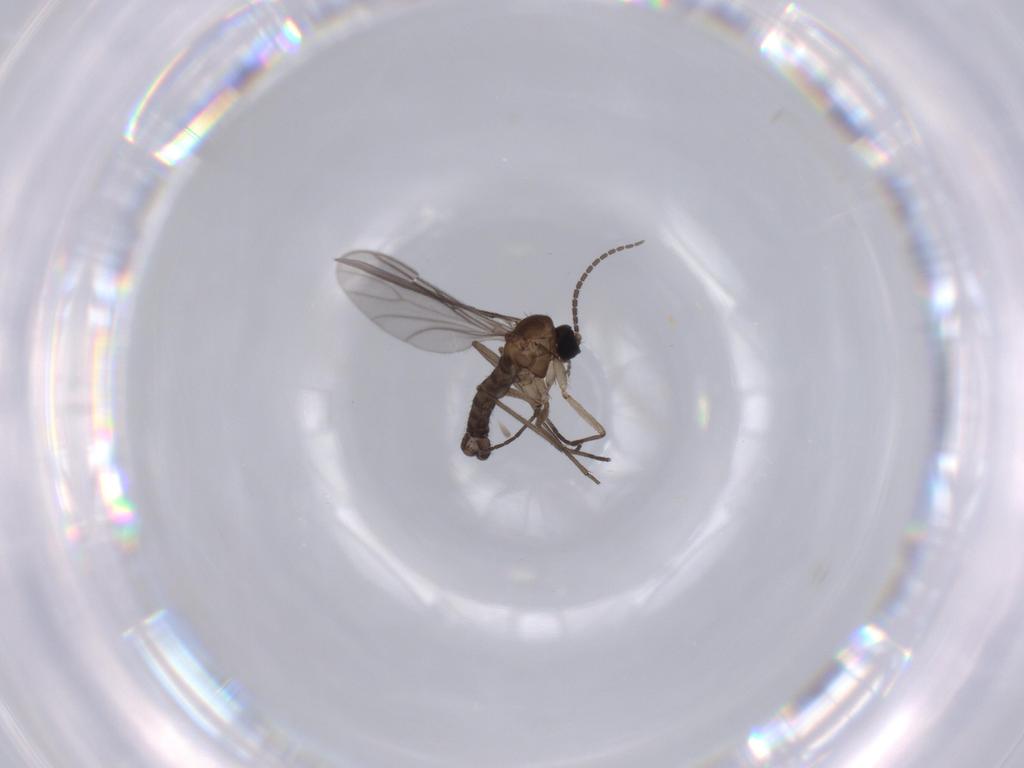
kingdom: Animalia
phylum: Arthropoda
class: Insecta
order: Diptera
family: Sciaridae
